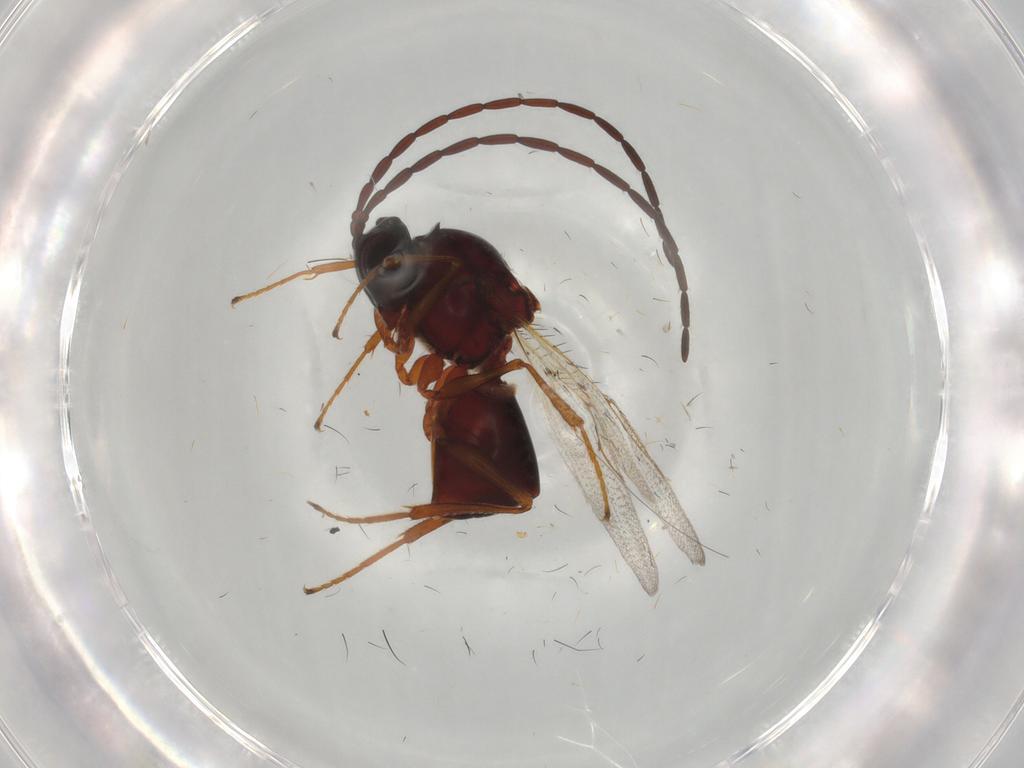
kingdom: Animalia
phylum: Arthropoda
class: Insecta
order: Hymenoptera
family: Figitidae
